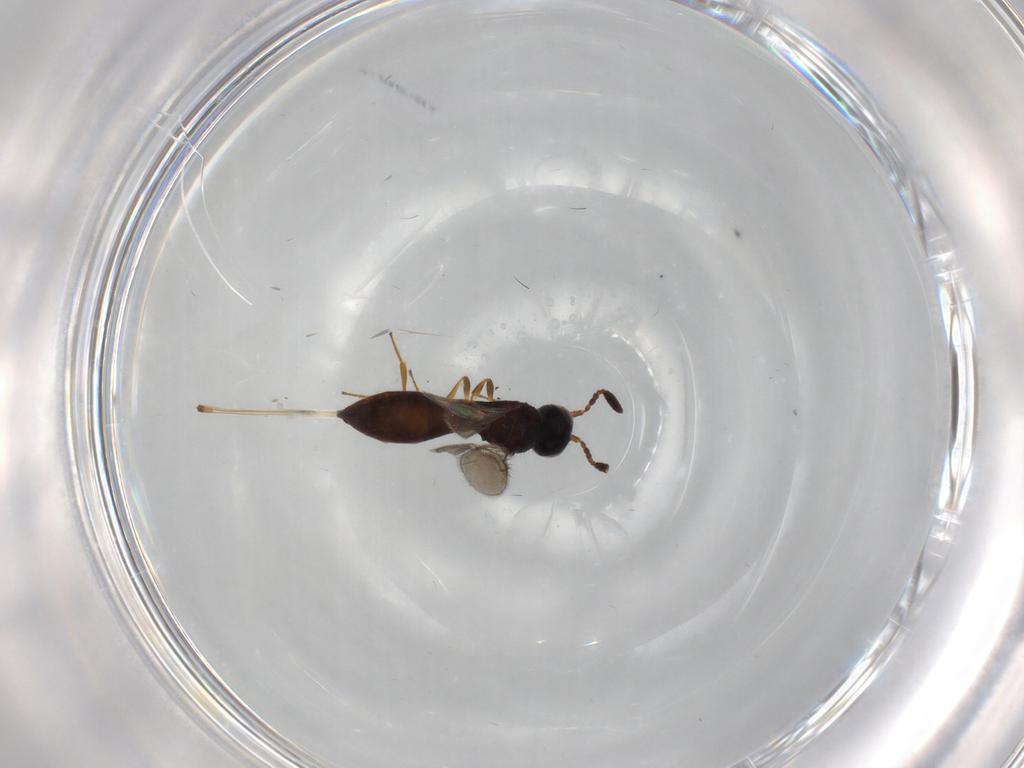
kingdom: Animalia
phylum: Arthropoda
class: Insecta
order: Hymenoptera
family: Scelionidae
